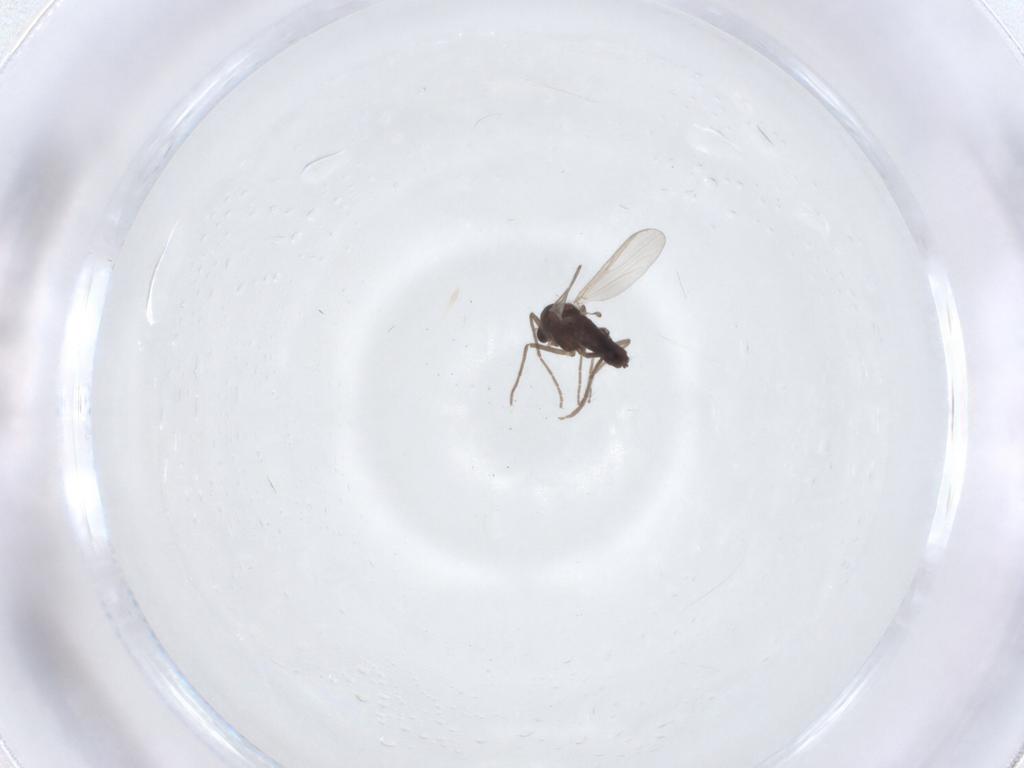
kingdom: Animalia
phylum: Arthropoda
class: Insecta
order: Diptera
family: Chironomidae
